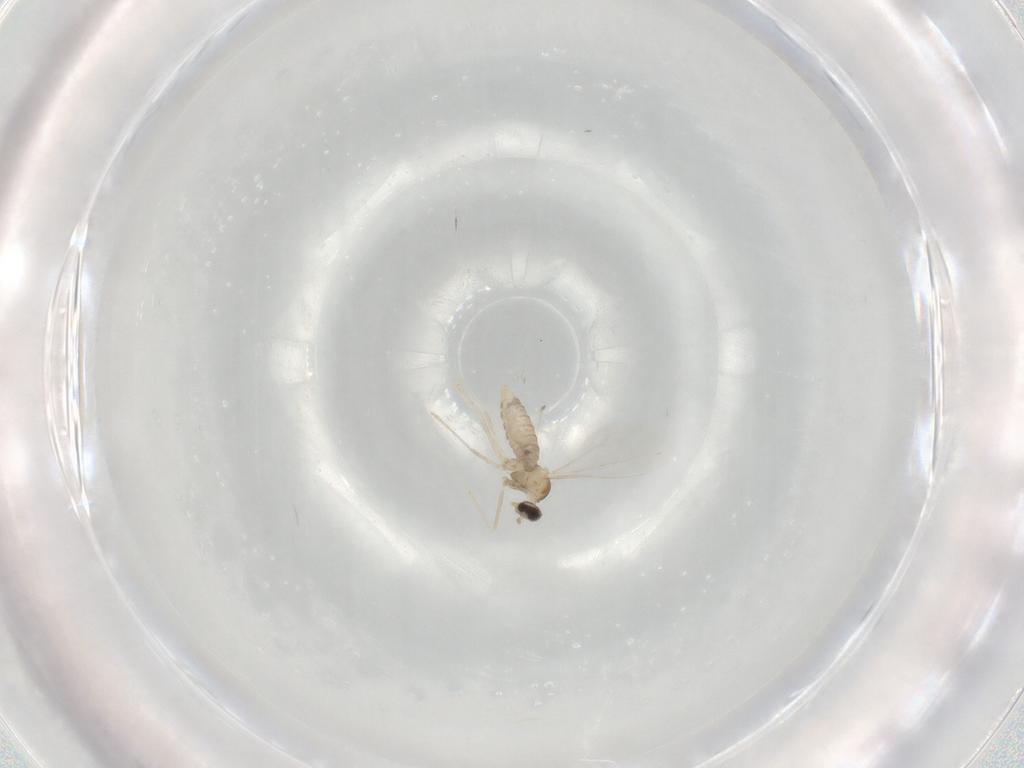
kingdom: Animalia
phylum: Arthropoda
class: Insecta
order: Diptera
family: Cecidomyiidae
